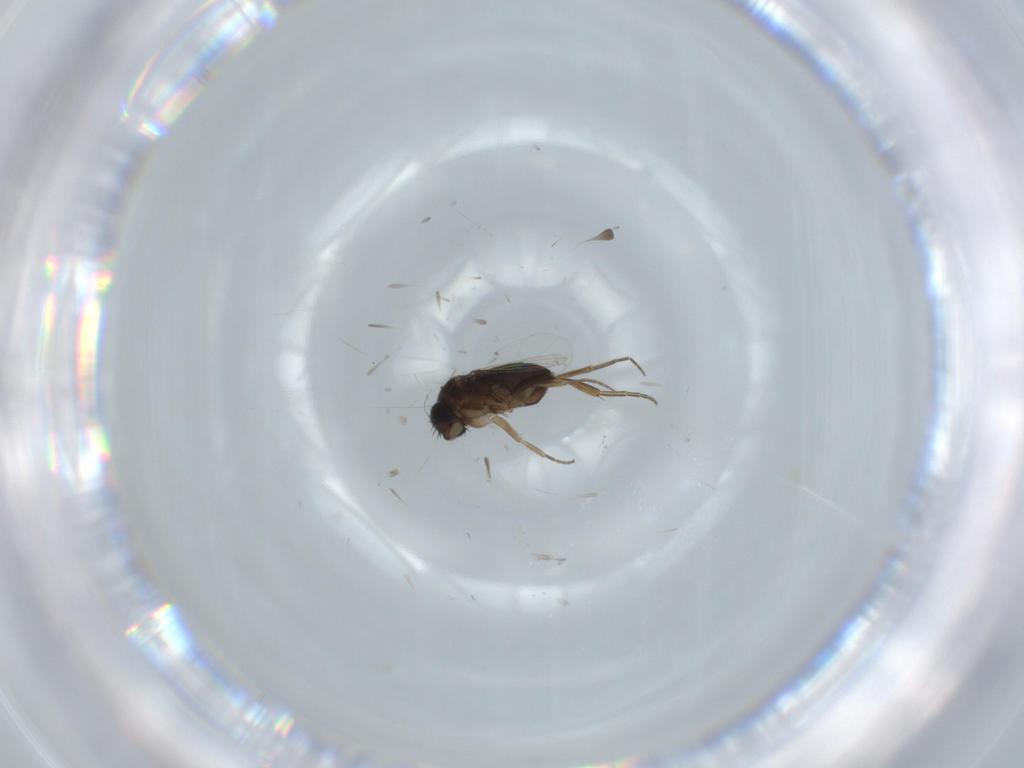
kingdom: Animalia
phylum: Arthropoda
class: Insecta
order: Diptera
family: Phoridae
